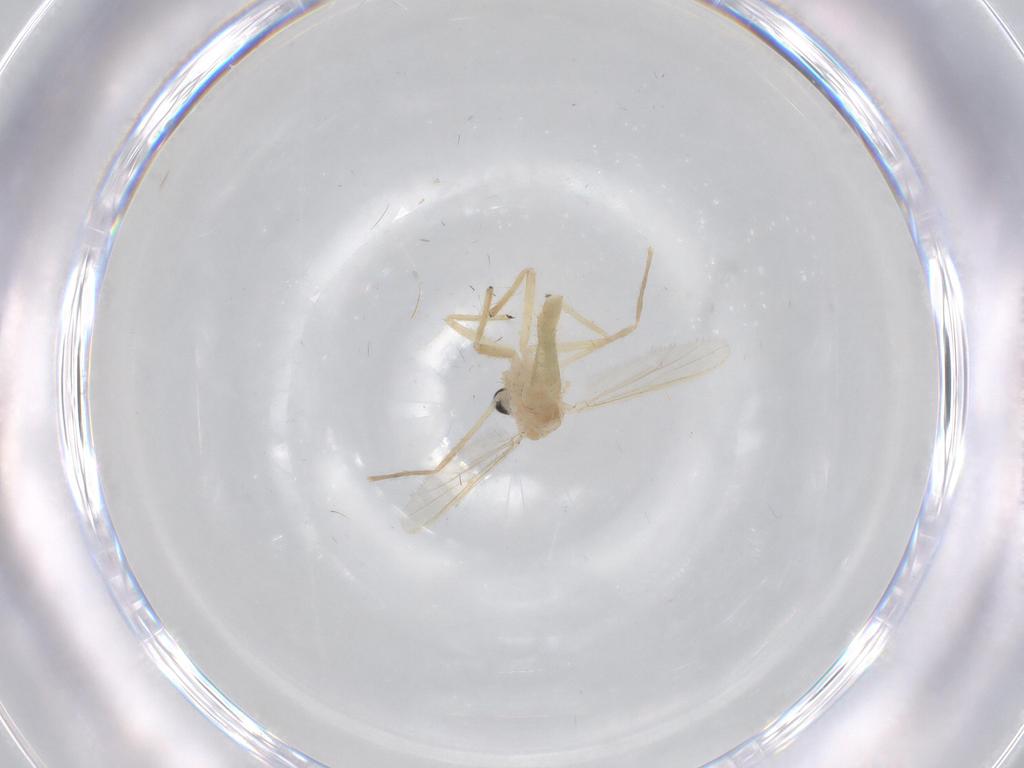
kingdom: Animalia
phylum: Arthropoda
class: Insecta
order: Diptera
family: Chironomidae
